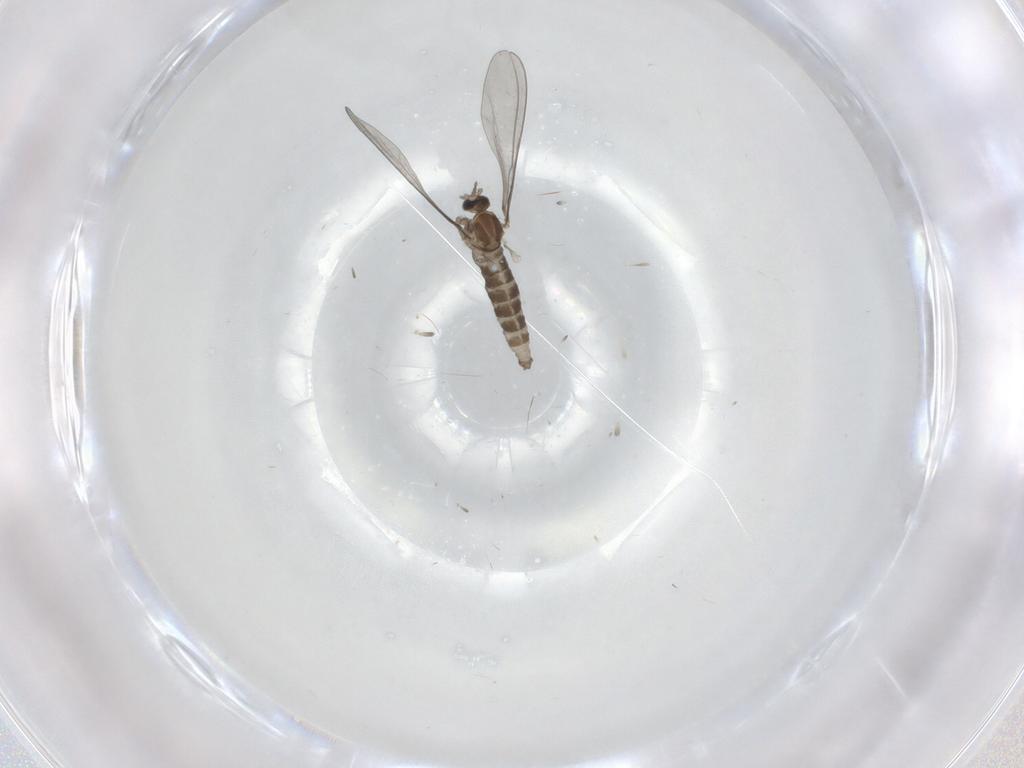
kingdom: Animalia
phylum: Arthropoda
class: Insecta
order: Diptera
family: Cecidomyiidae
